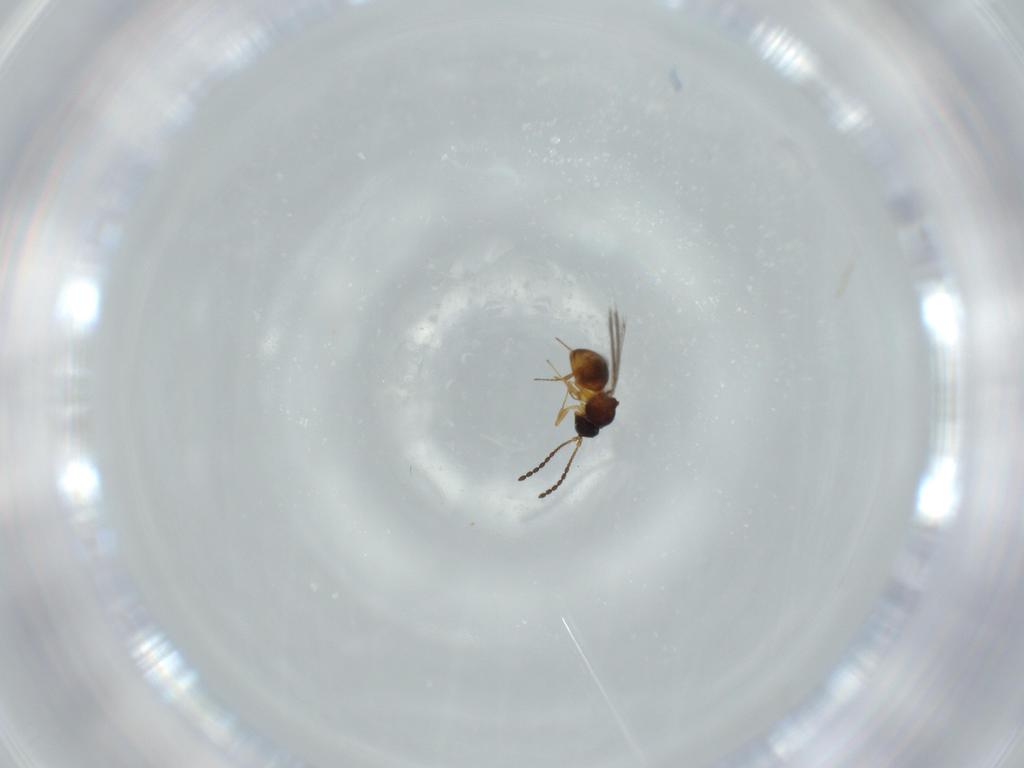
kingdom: Animalia
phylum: Arthropoda
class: Insecta
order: Hymenoptera
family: Figitidae
